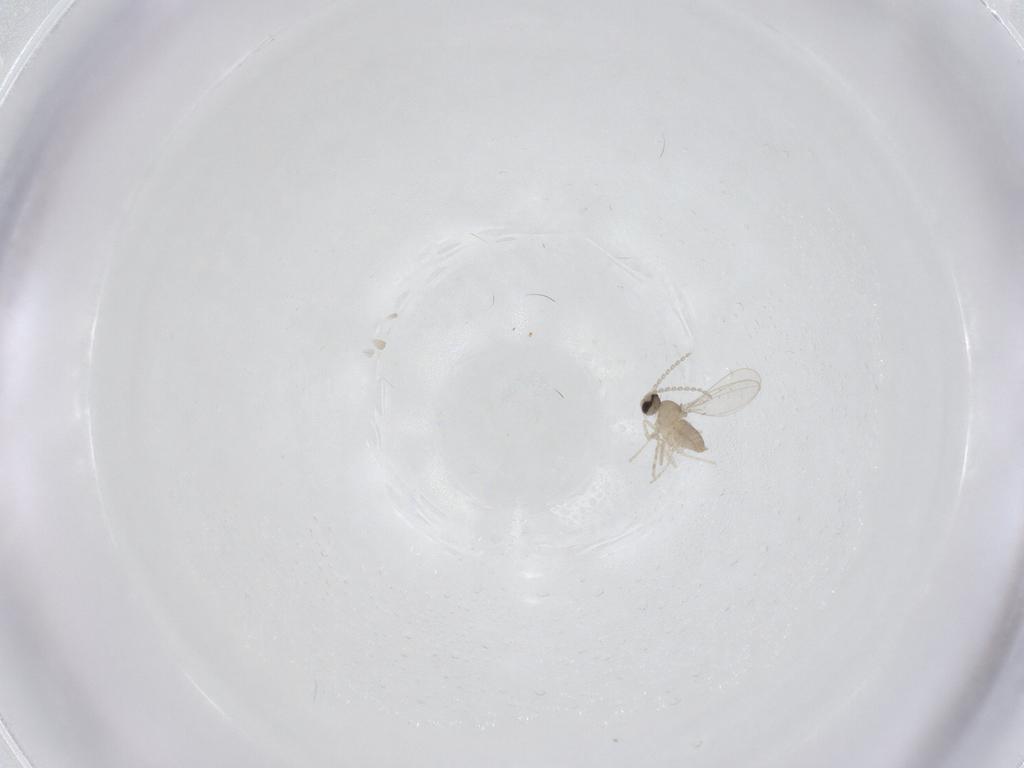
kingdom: Animalia
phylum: Arthropoda
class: Insecta
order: Diptera
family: Cecidomyiidae
